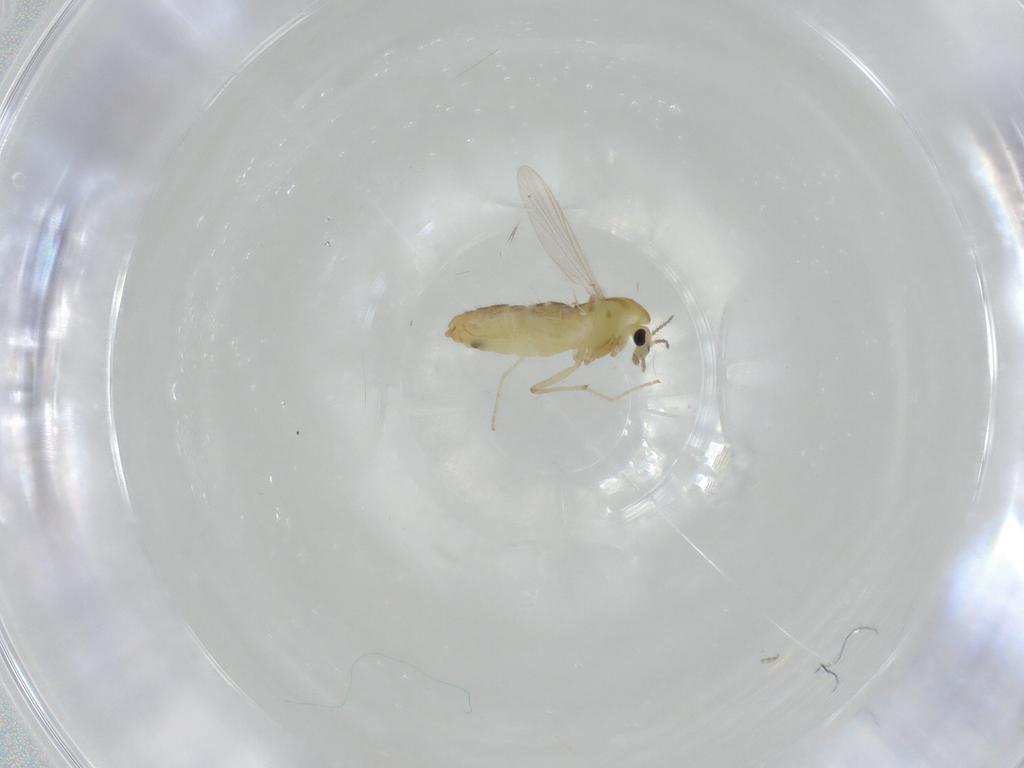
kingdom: Animalia
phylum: Arthropoda
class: Insecta
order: Diptera
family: Chironomidae
